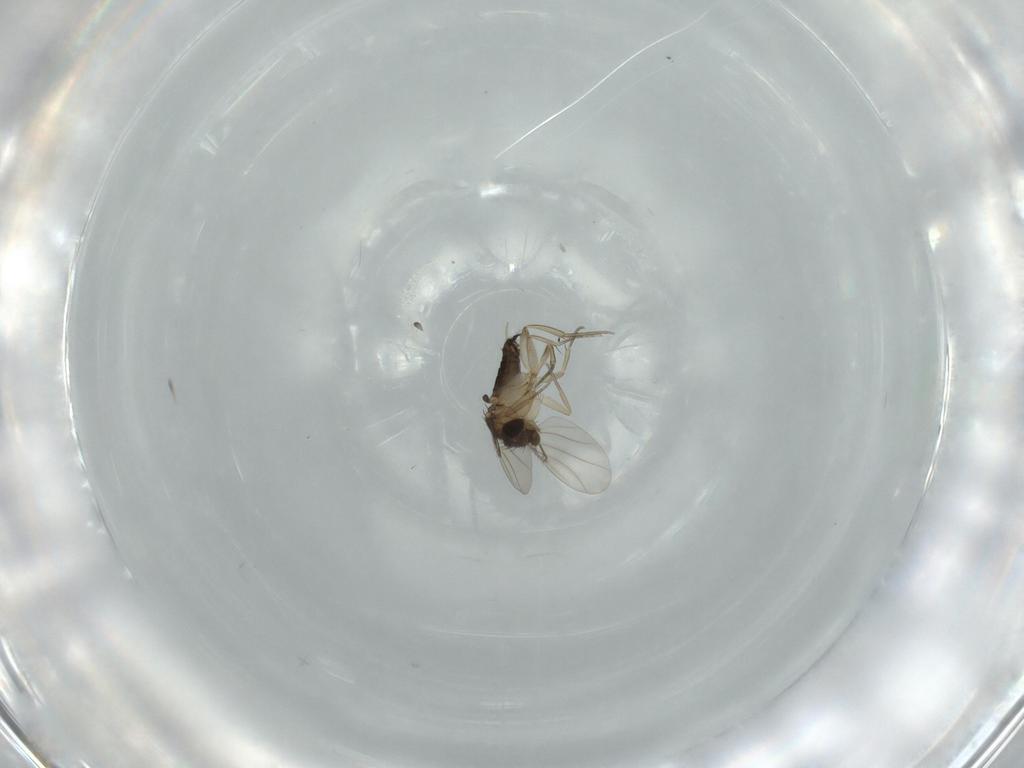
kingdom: Animalia
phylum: Arthropoda
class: Insecta
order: Diptera
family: Phoridae
